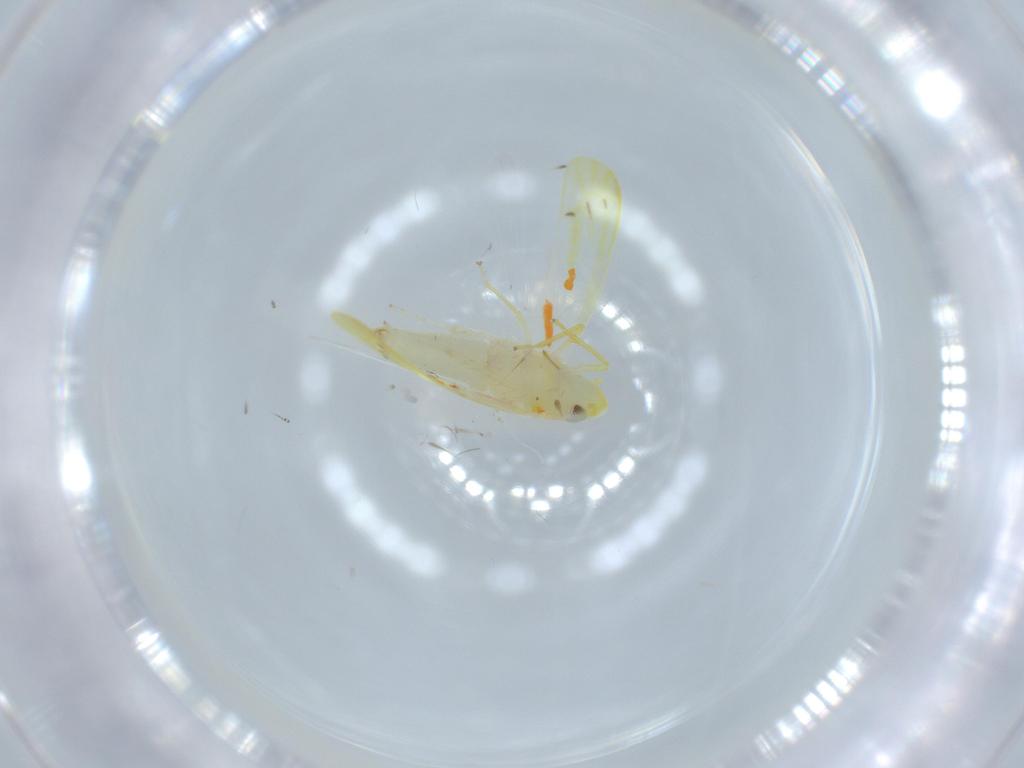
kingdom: Animalia
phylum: Arthropoda
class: Insecta
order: Hemiptera
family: Cicadellidae
